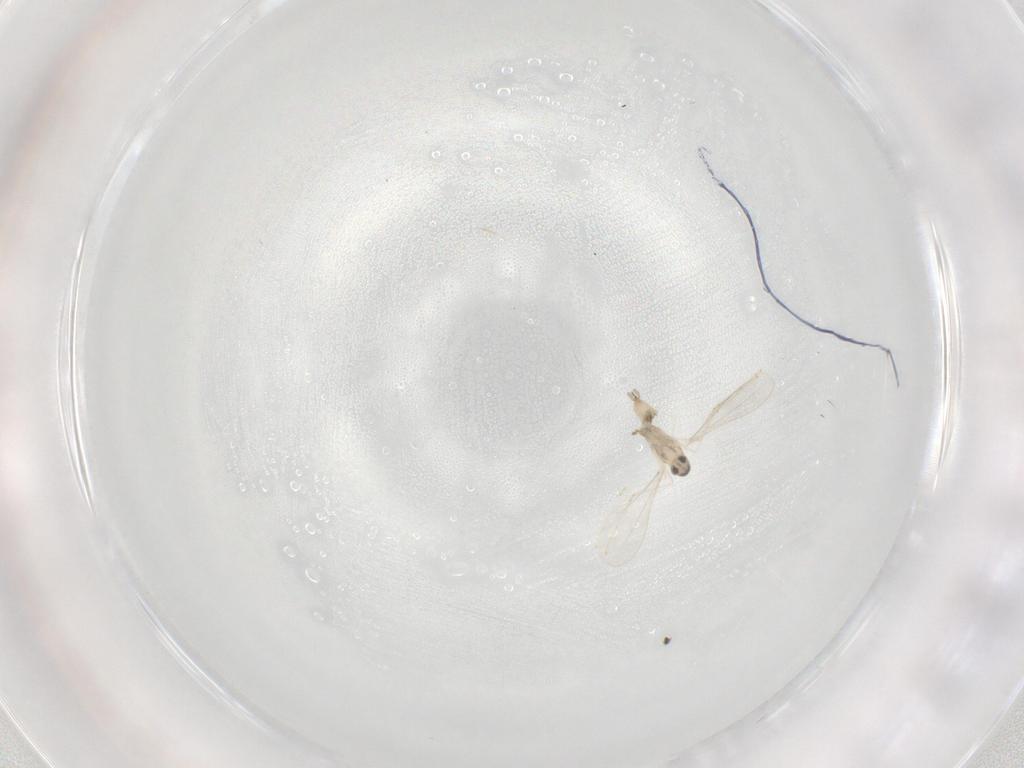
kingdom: Animalia
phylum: Arthropoda
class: Insecta
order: Diptera
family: Cecidomyiidae
